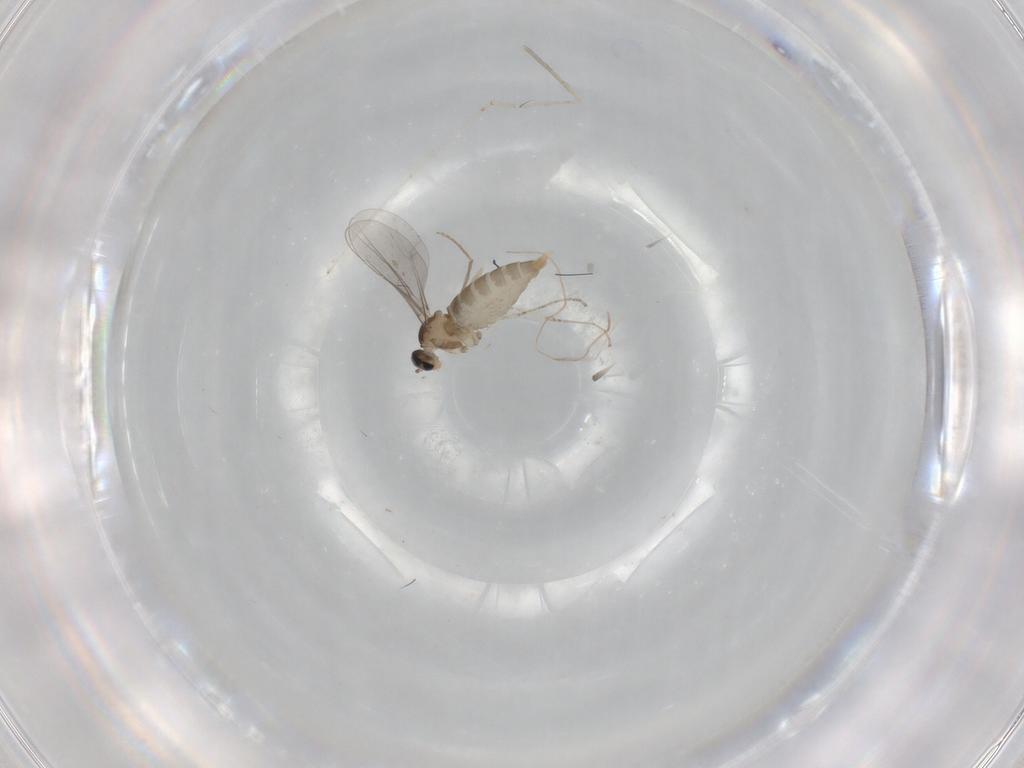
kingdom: Animalia
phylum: Arthropoda
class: Insecta
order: Diptera
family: Cecidomyiidae
